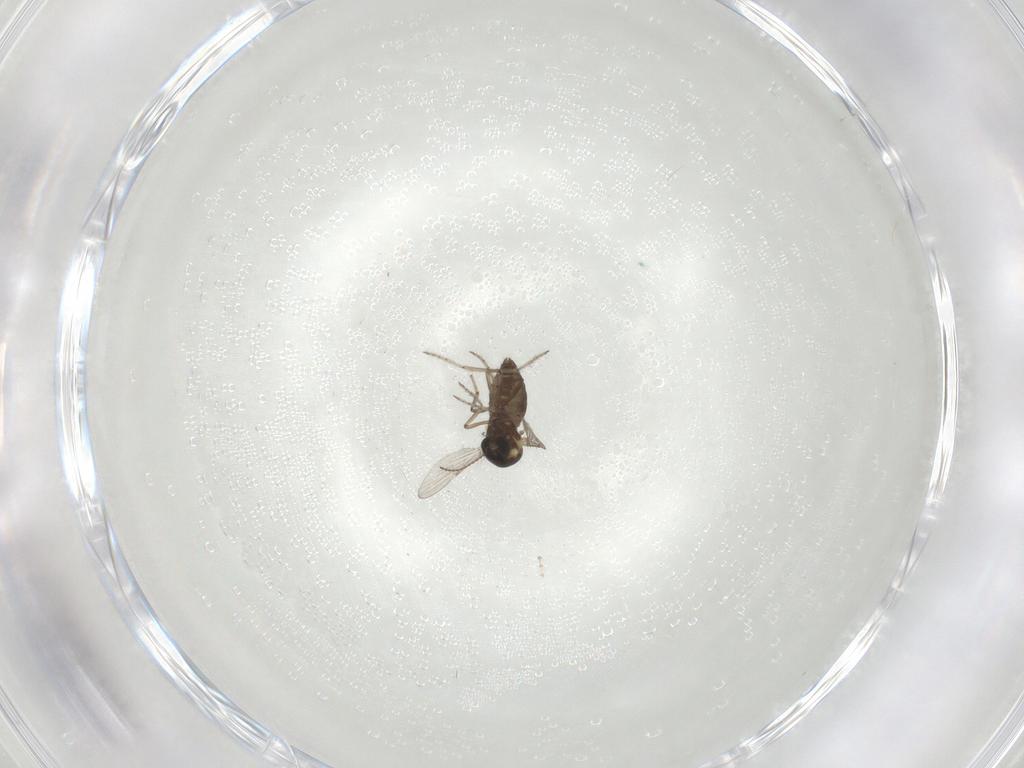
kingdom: Animalia
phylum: Arthropoda
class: Insecta
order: Diptera
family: Ceratopogonidae
